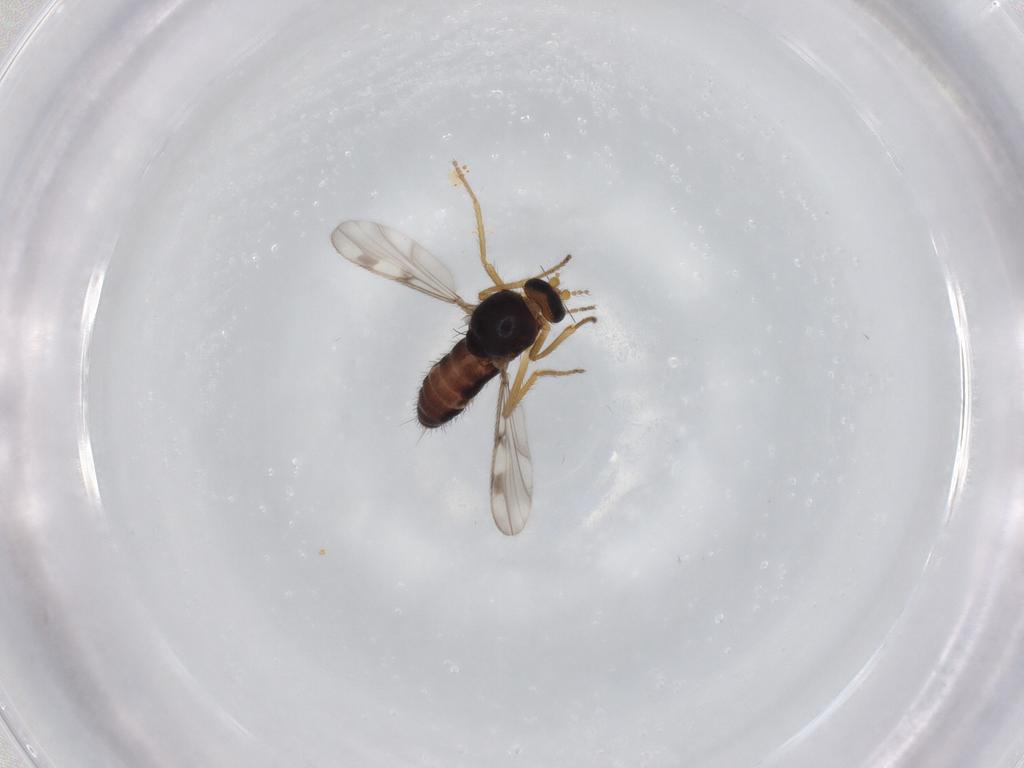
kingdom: Animalia
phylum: Arthropoda
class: Insecta
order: Diptera
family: Ceratopogonidae
